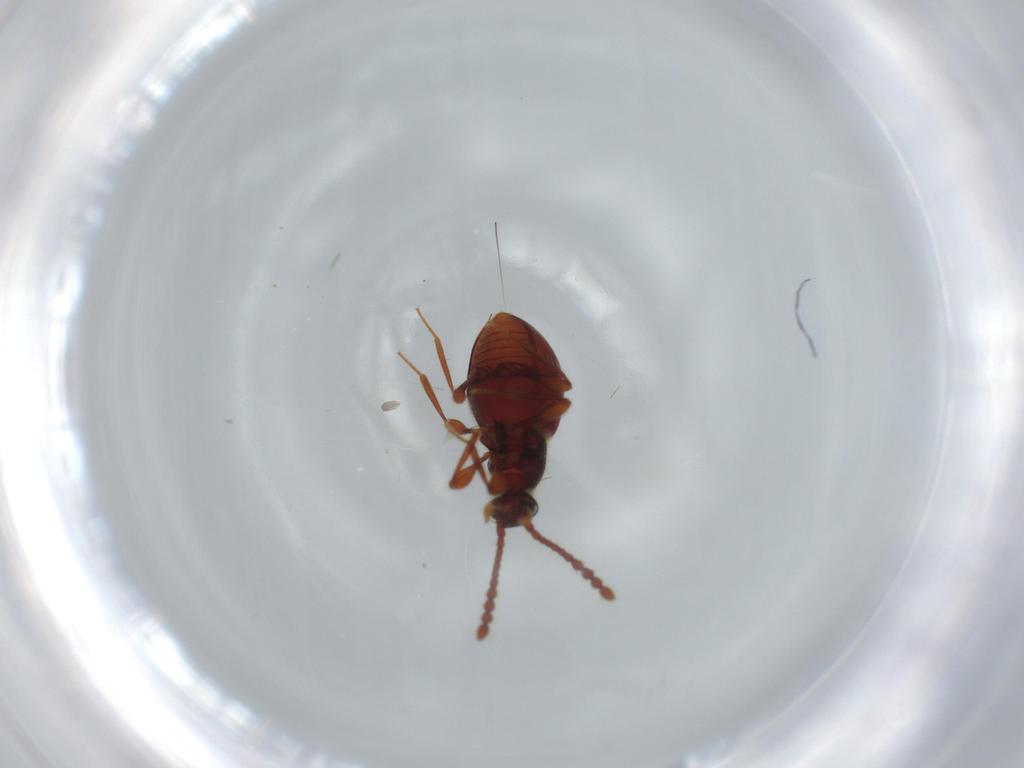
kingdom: Animalia
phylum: Arthropoda
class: Insecta
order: Coleoptera
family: Staphylinidae
